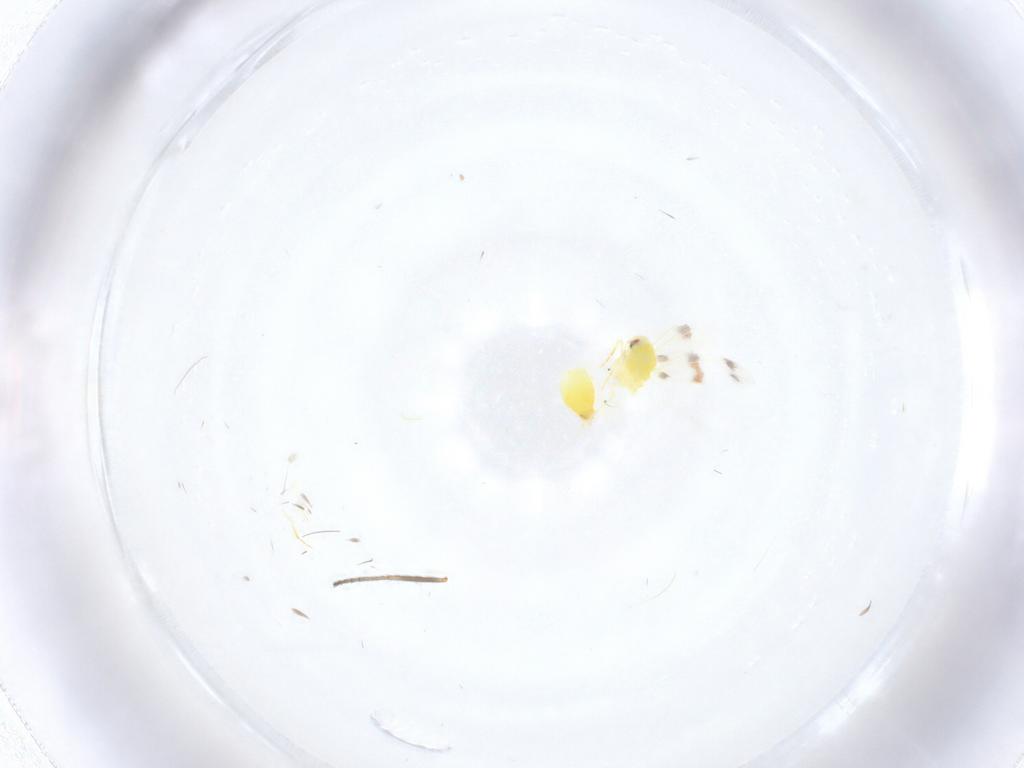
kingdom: Animalia
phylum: Arthropoda
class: Insecta
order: Hemiptera
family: Aleyrodidae
